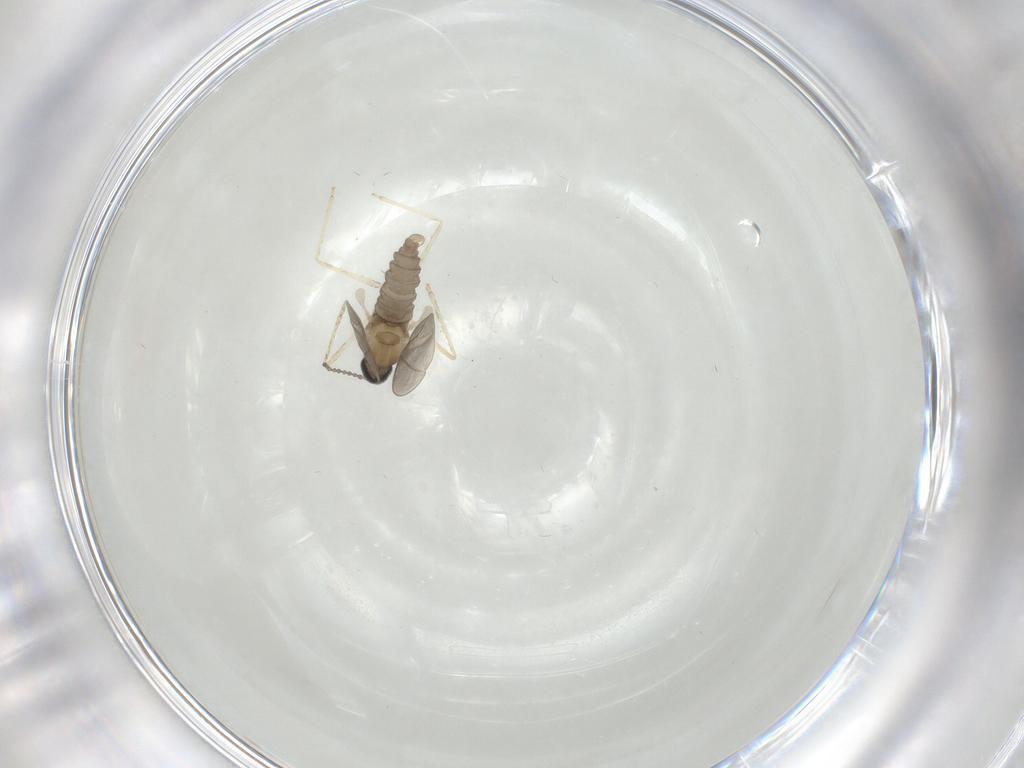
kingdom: Animalia
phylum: Arthropoda
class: Insecta
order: Diptera
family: Cecidomyiidae
